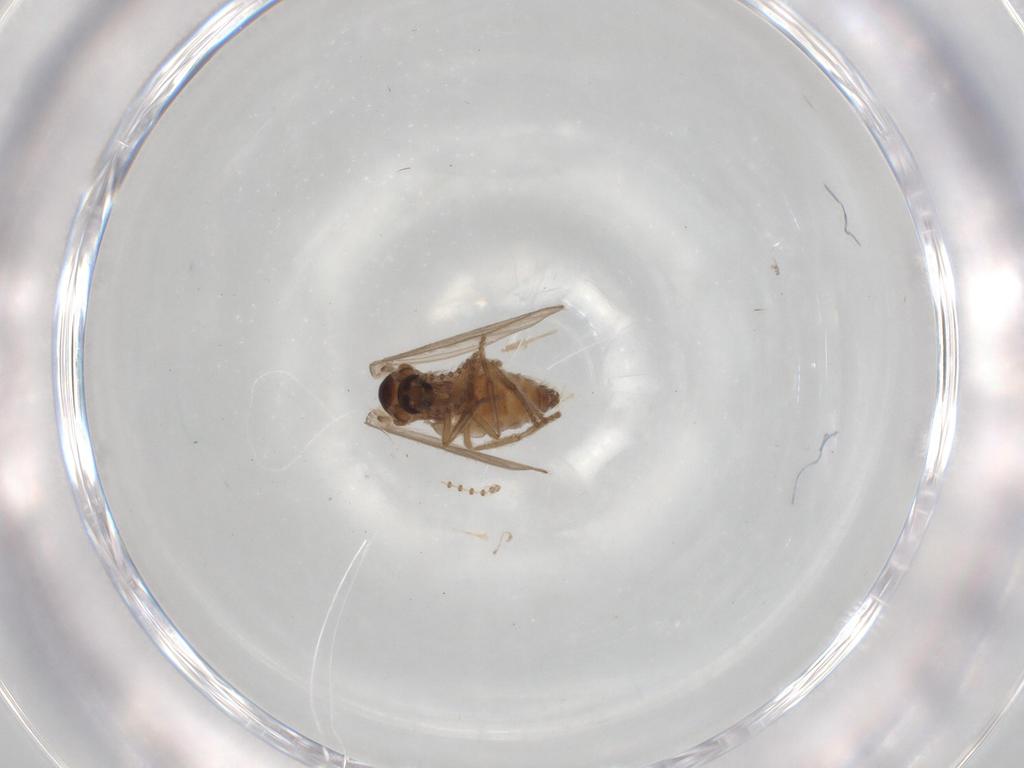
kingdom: Animalia
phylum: Arthropoda
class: Insecta
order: Diptera
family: Psychodidae
